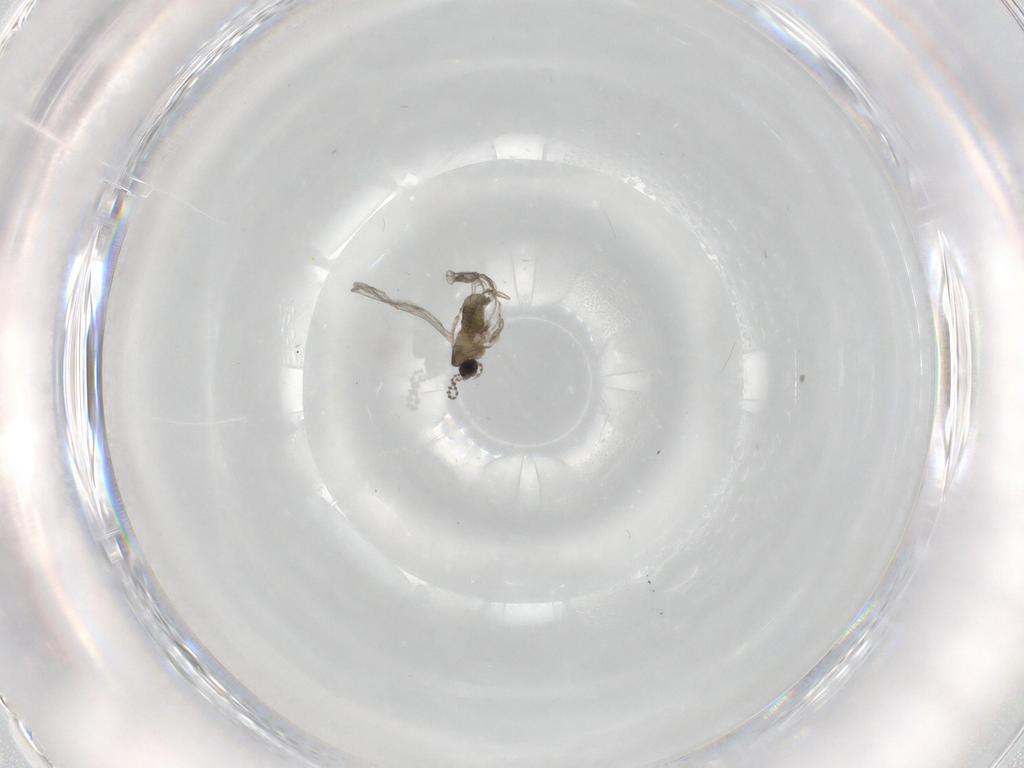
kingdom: Animalia
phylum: Arthropoda
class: Insecta
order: Diptera
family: Cecidomyiidae
